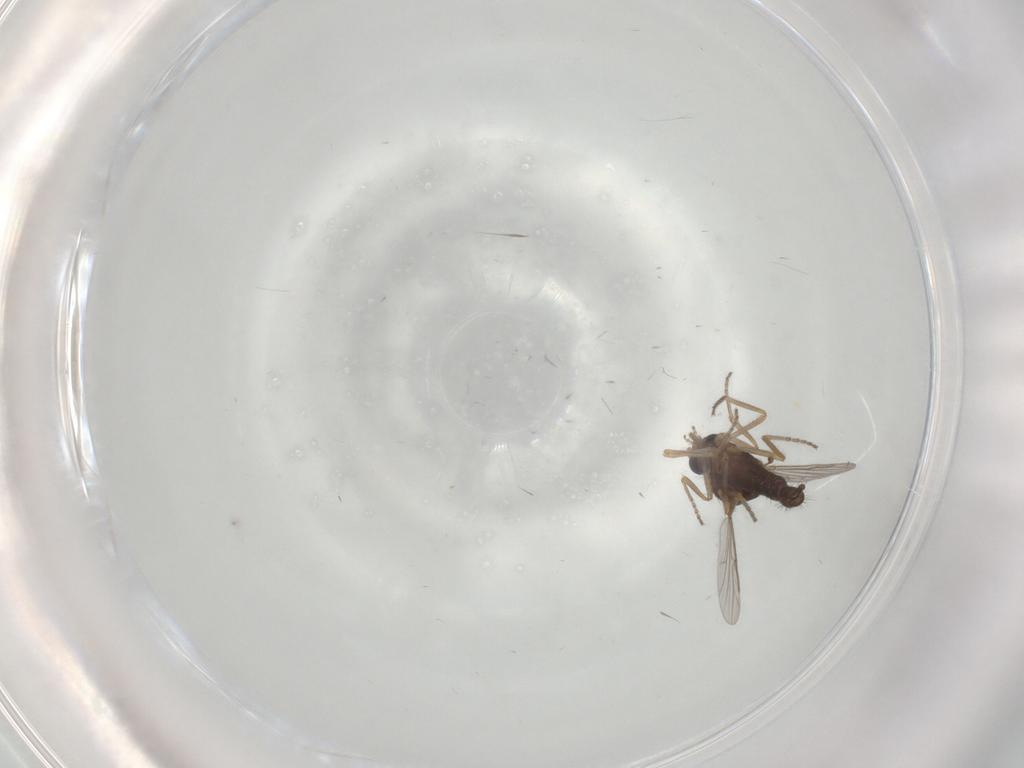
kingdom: Animalia
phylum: Arthropoda
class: Insecta
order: Diptera
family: Ceratopogonidae
